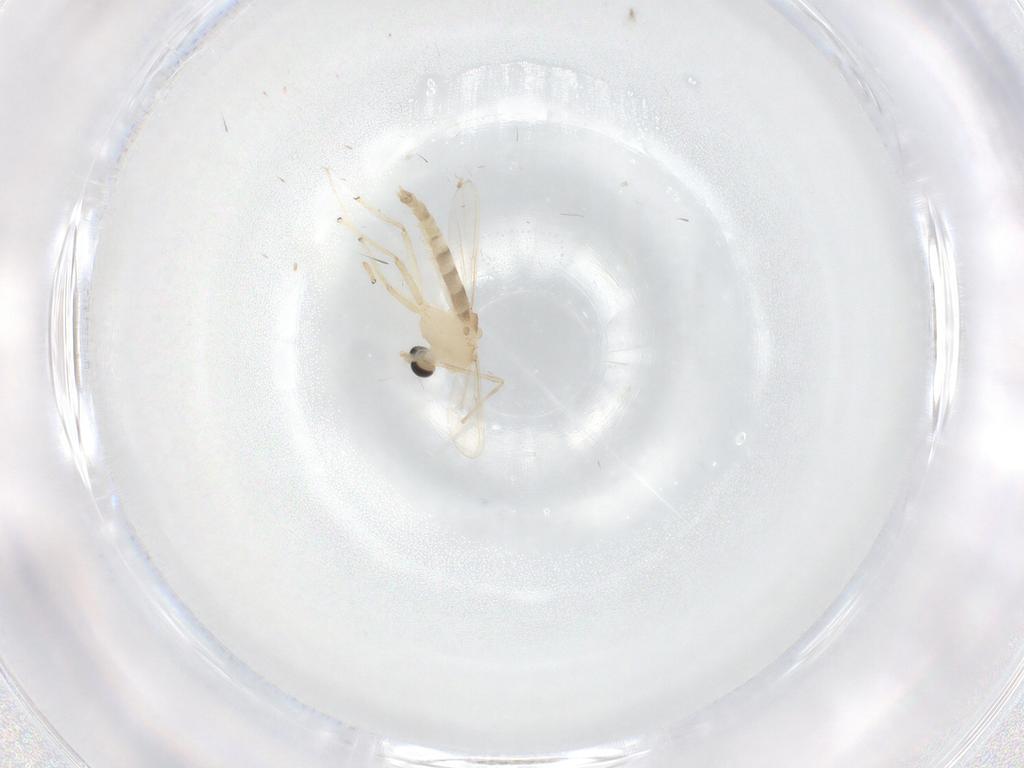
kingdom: Animalia
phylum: Arthropoda
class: Insecta
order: Diptera
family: Chironomidae
